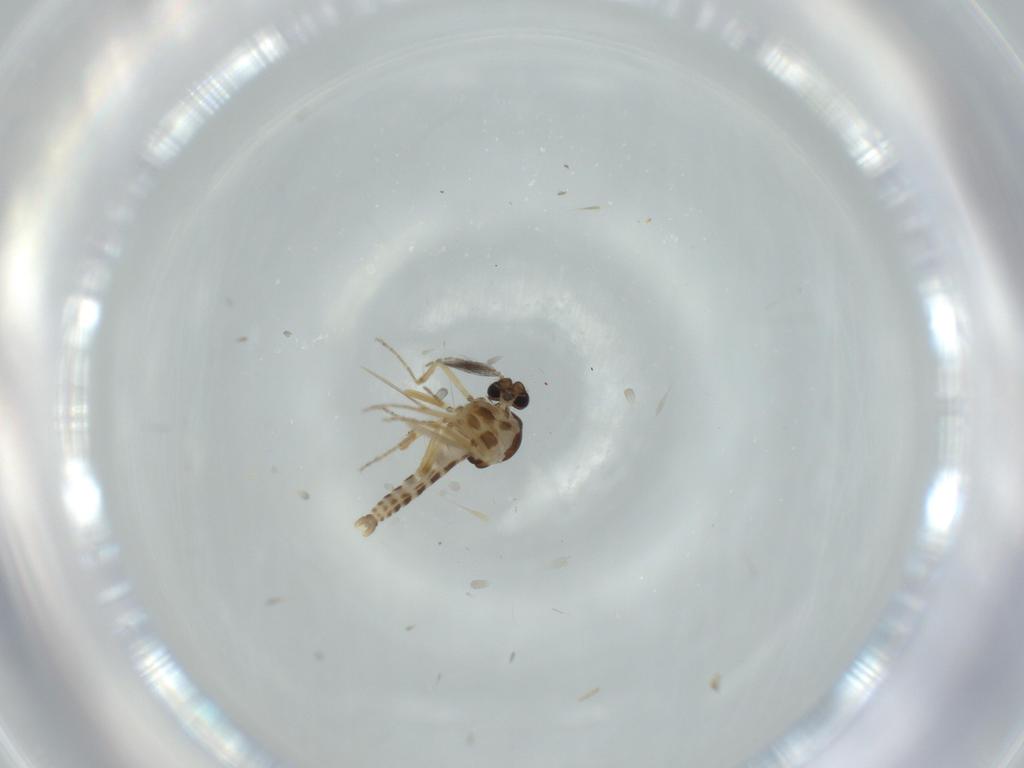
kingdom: Animalia
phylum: Arthropoda
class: Insecta
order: Diptera
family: Ceratopogonidae
